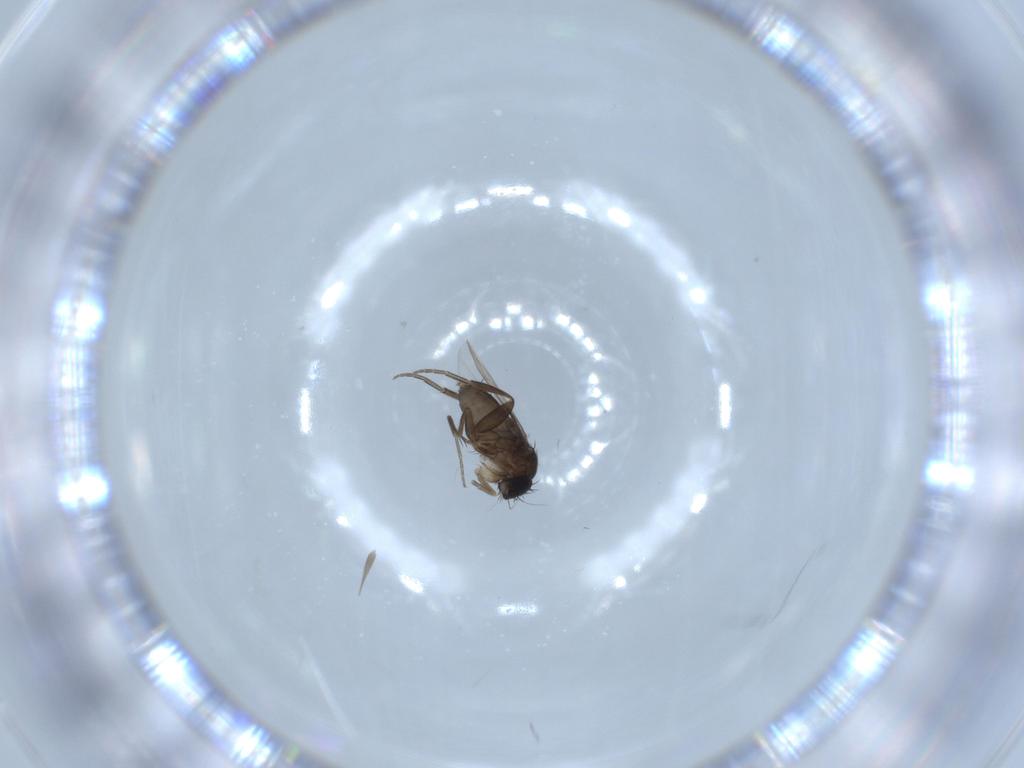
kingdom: Animalia
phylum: Arthropoda
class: Insecta
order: Diptera
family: Phoridae
